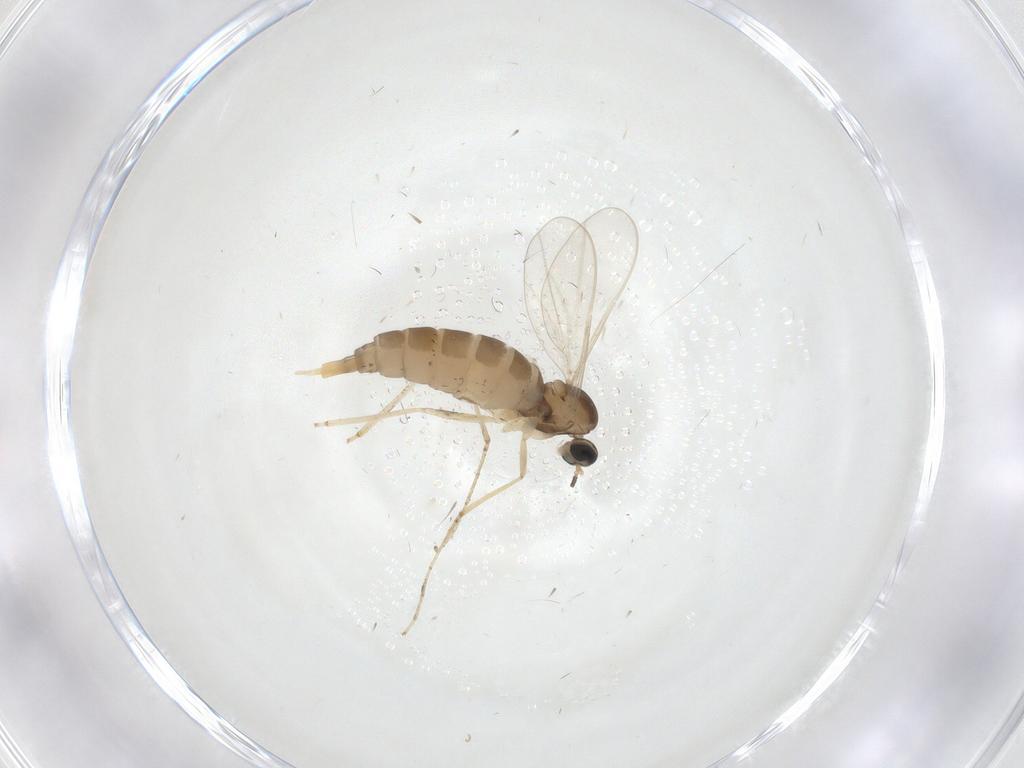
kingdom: Animalia
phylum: Arthropoda
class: Insecta
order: Diptera
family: Cecidomyiidae
